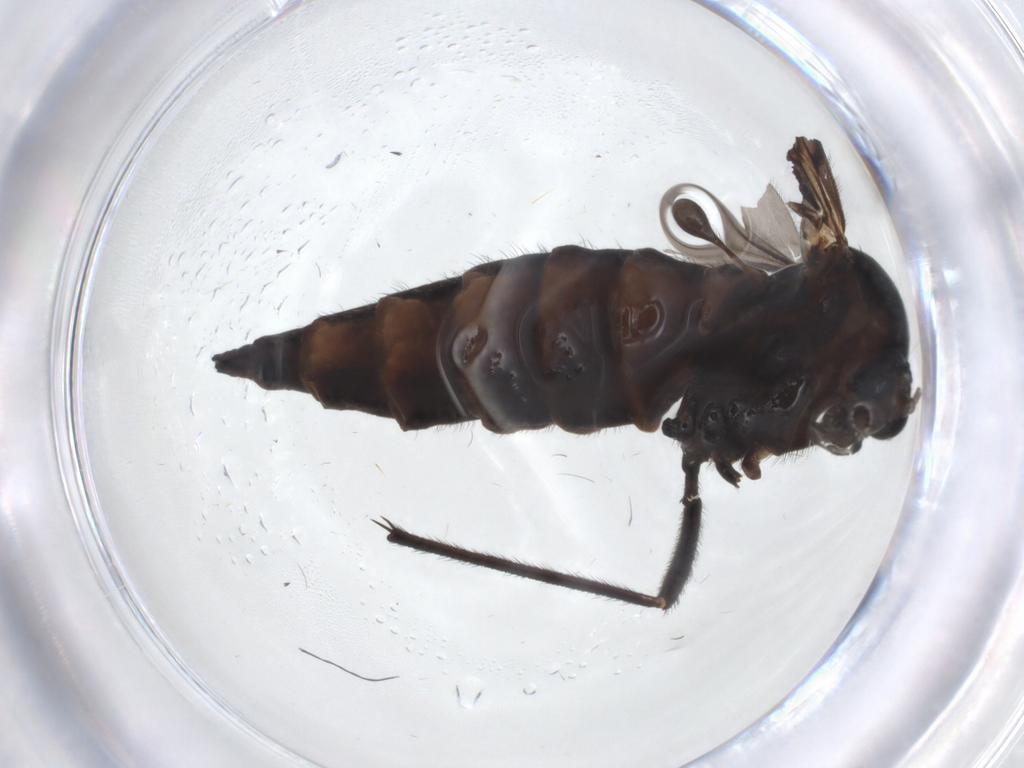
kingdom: Animalia
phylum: Arthropoda
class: Insecta
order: Diptera
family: Sciaridae
